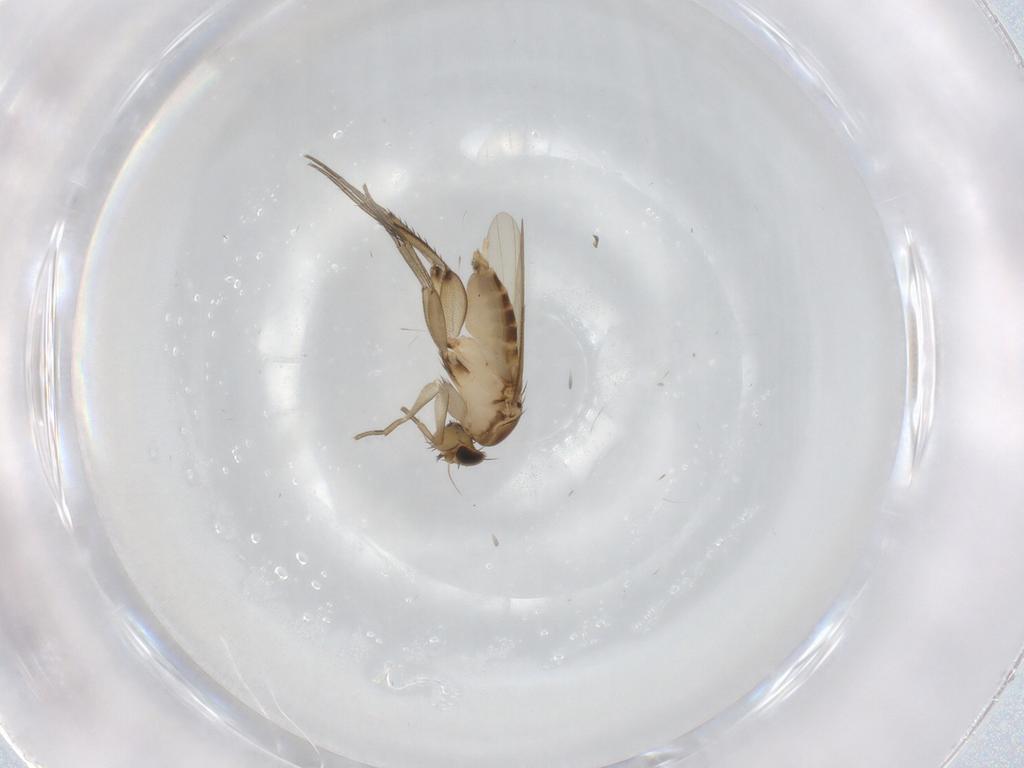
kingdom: Animalia
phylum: Arthropoda
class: Insecta
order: Diptera
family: Phoridae
